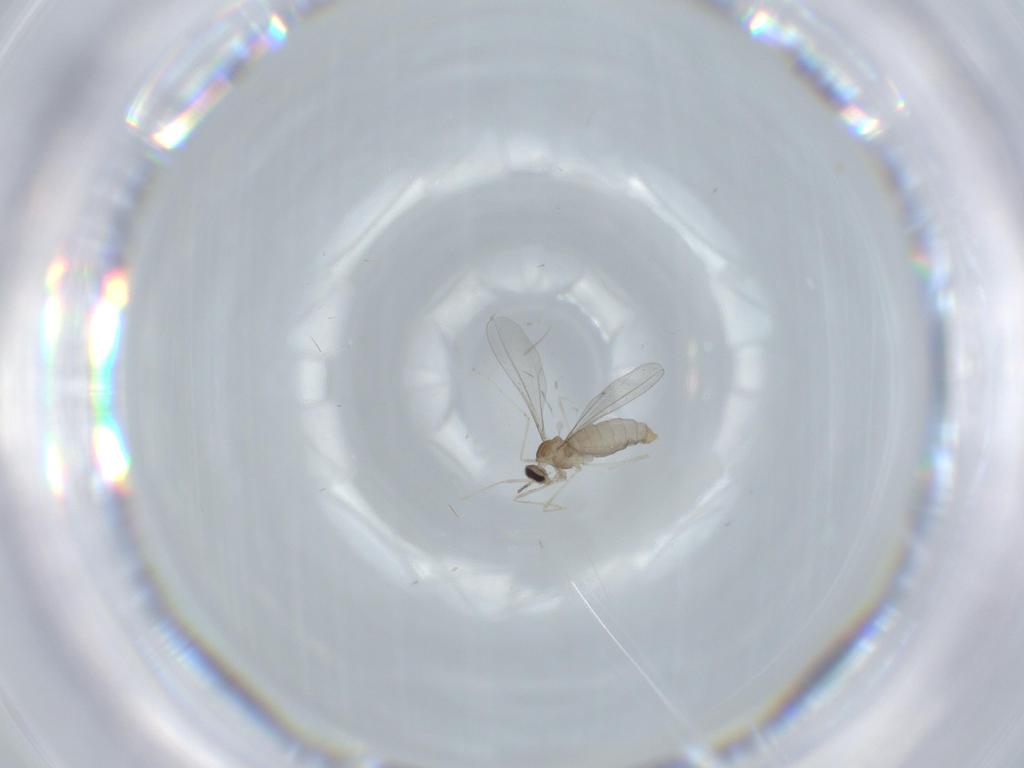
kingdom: Animalia
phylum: Arthropoda
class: Insecta
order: Diptera
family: Cecidomyiidae
